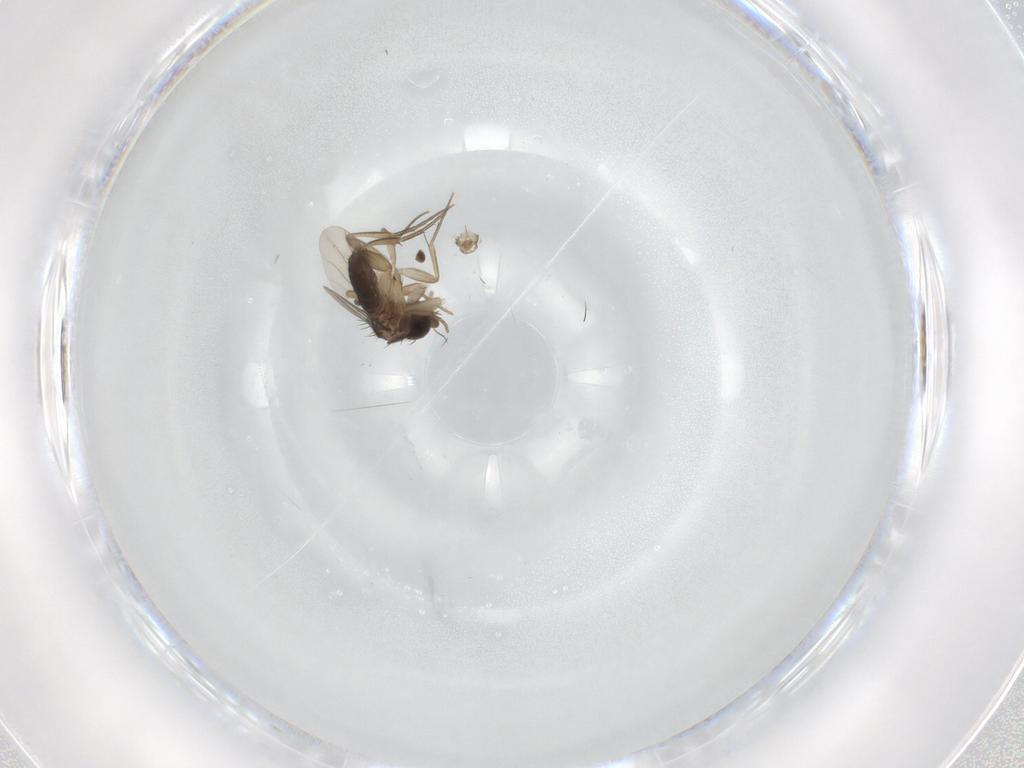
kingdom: Animalia
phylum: Arthropoda
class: Insecta
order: Diptera
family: Phoridae
